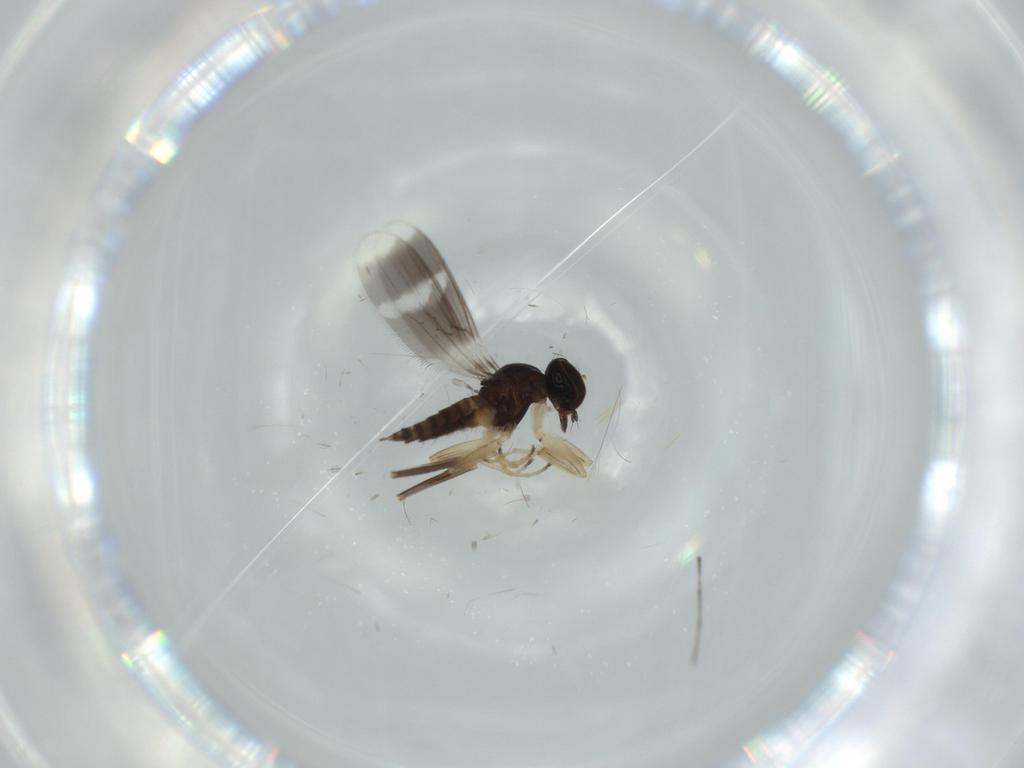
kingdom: Animalia
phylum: Arthropoda
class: Insecta
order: Diptera
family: Hybotidae
